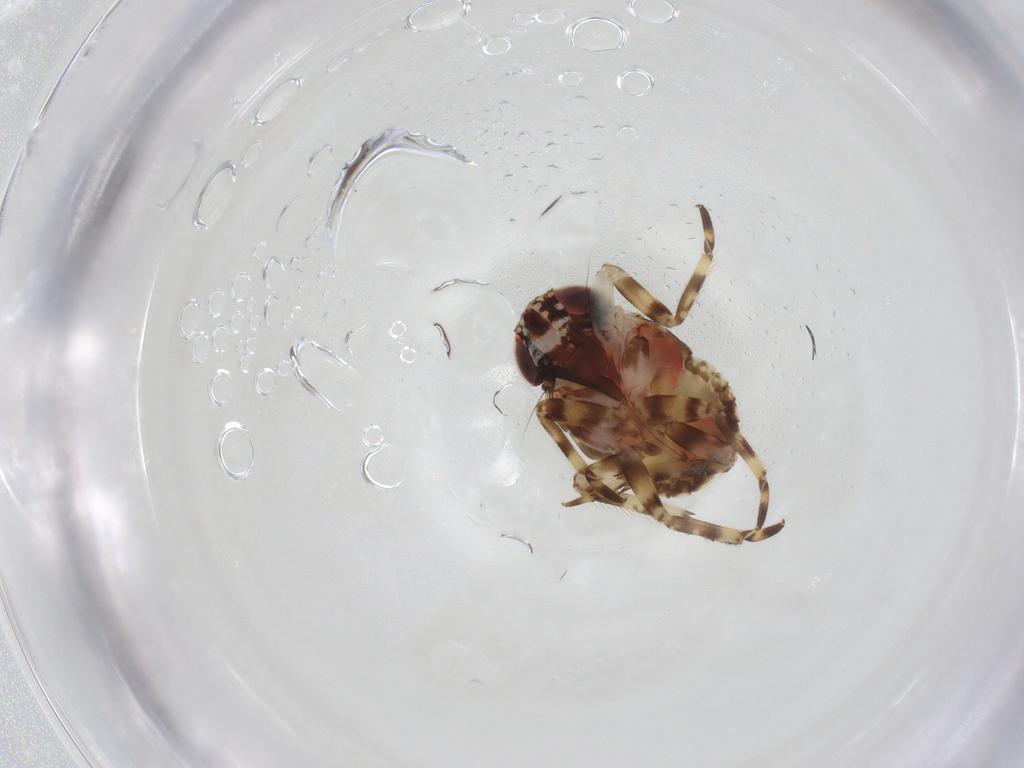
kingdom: Animalia
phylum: Arthropoda
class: Insecta
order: Hemiptera
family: Caliscelidae
